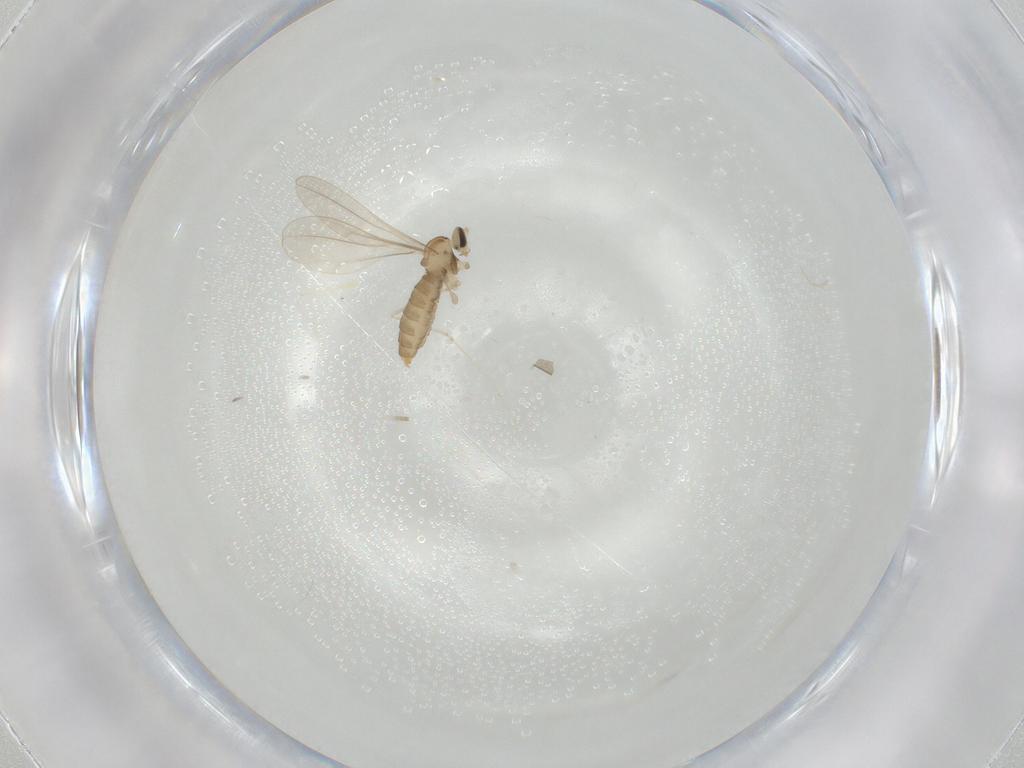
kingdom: Animalia
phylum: Arthropoda
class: Insecta
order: Diptera
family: Cecidomyiidae
